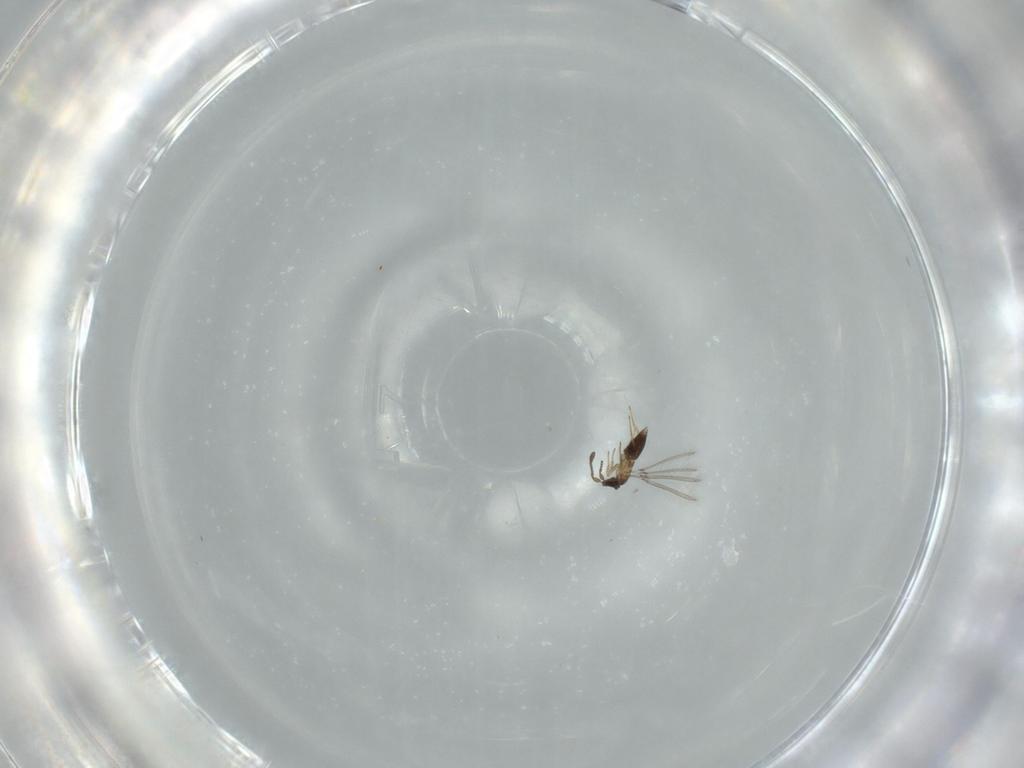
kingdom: Animalia
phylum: Arthropoda
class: Insecta
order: Hymenoptera
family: Mymaridae
